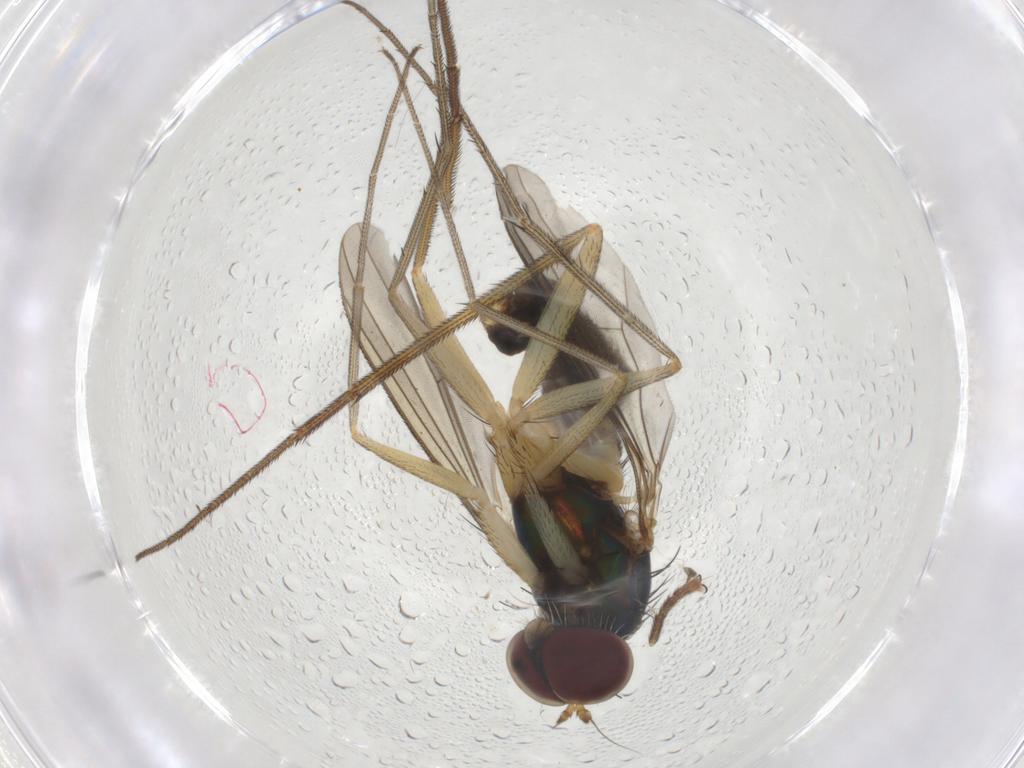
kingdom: Animalia
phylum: Arthropoda
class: Insecta
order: Diptera
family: Dolichopodidae
